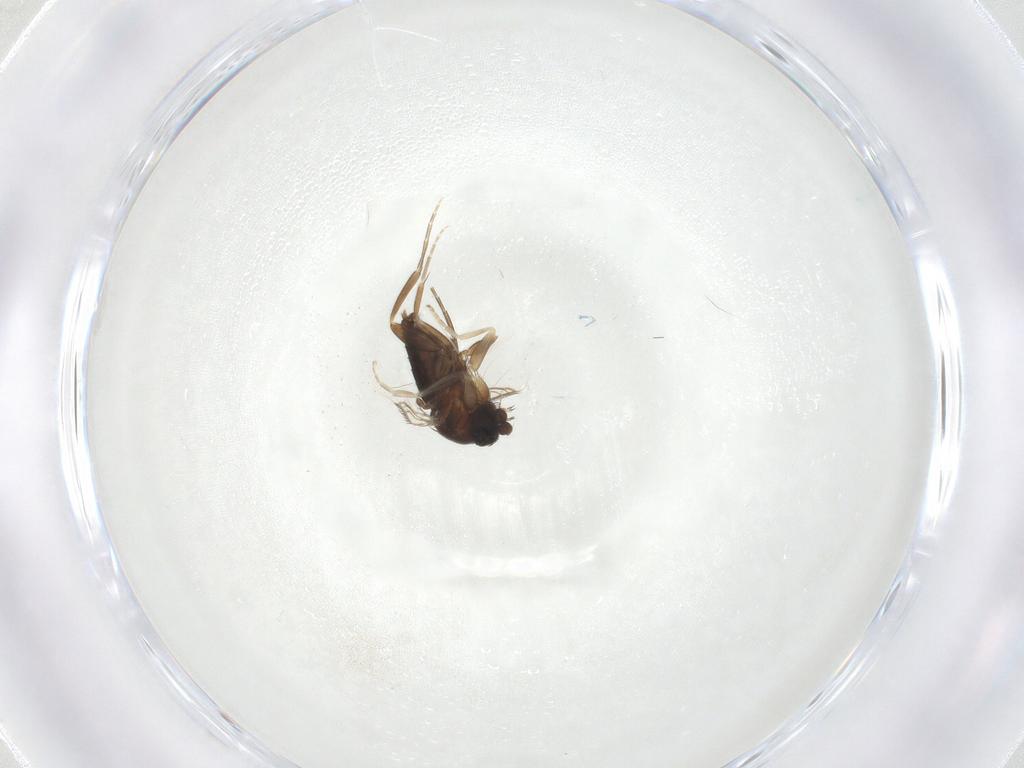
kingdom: Animalia
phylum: Arthropoda
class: Insecta
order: Diptera
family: Phoridae
